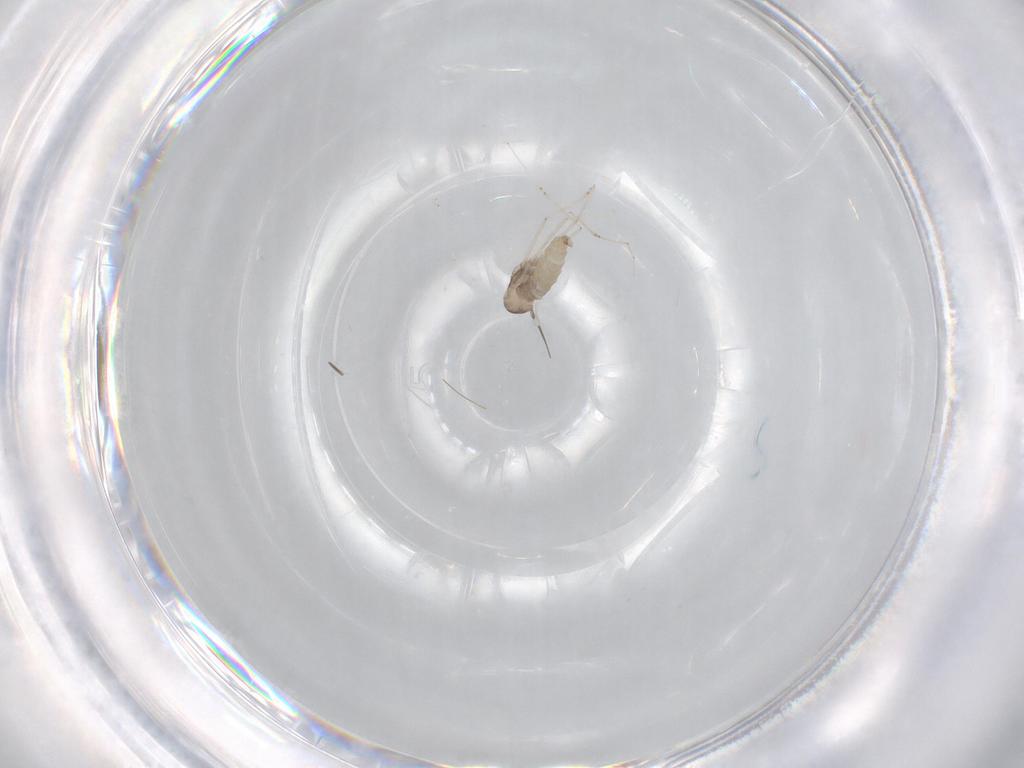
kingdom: Animalia
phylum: Arthropoda
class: Insecta
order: Diptera
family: Cecidomyiidae
